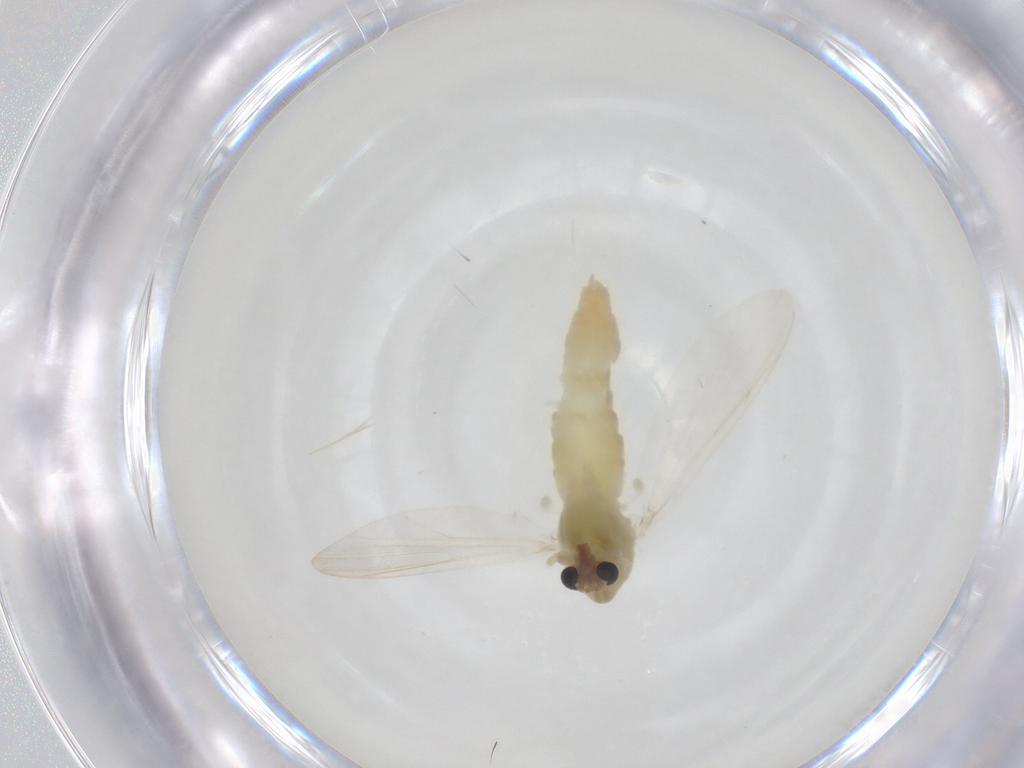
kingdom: Animalia
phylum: Arthropoda
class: Insecta
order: Diptera
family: Chironomidae
